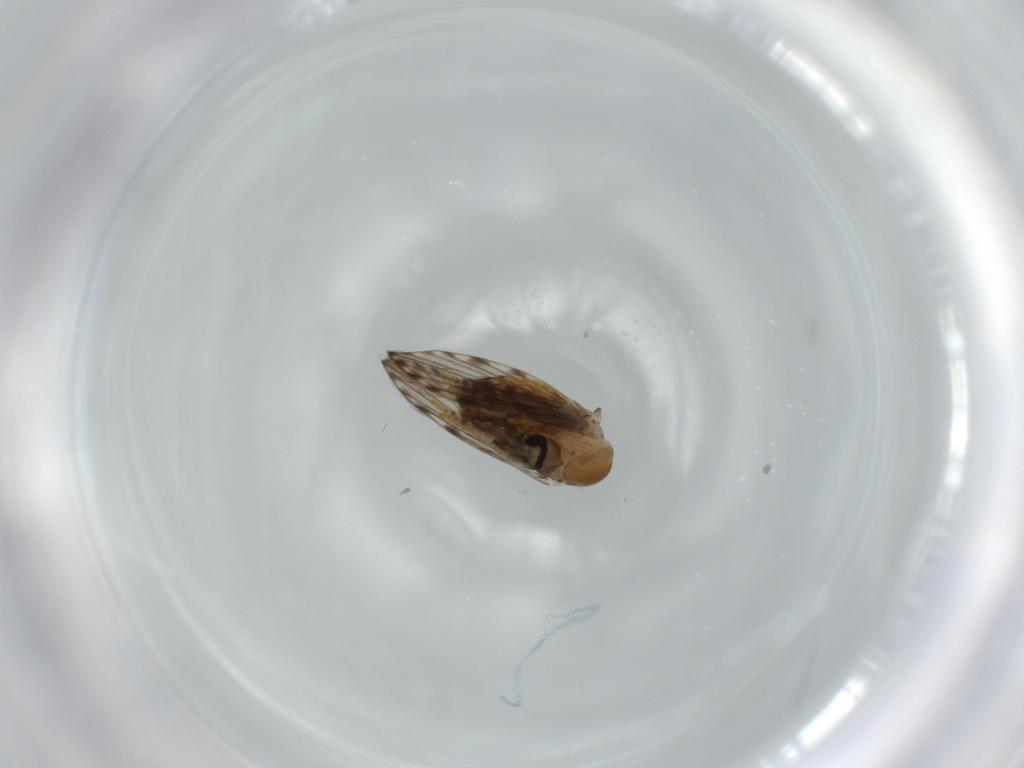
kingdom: Animalia
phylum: Arthropoda
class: Insecta
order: Diptera
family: Psychodidae
